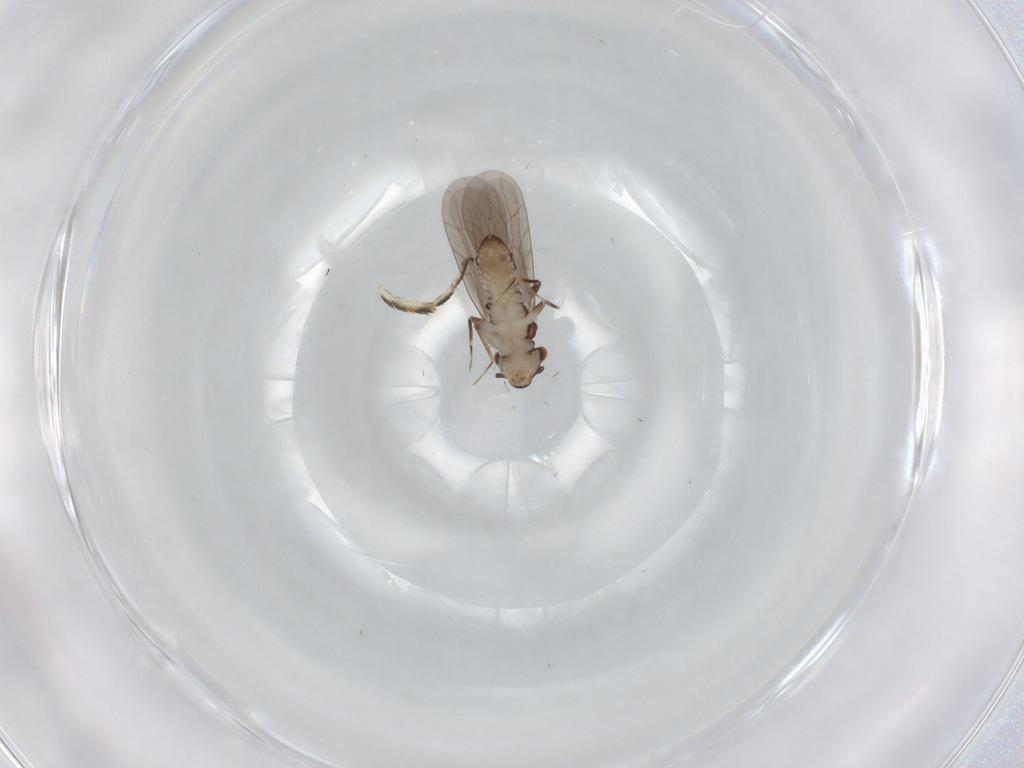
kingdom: Animalia
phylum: Arthropoda
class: Insecta
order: Psocodea
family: Lepidopsocidae
